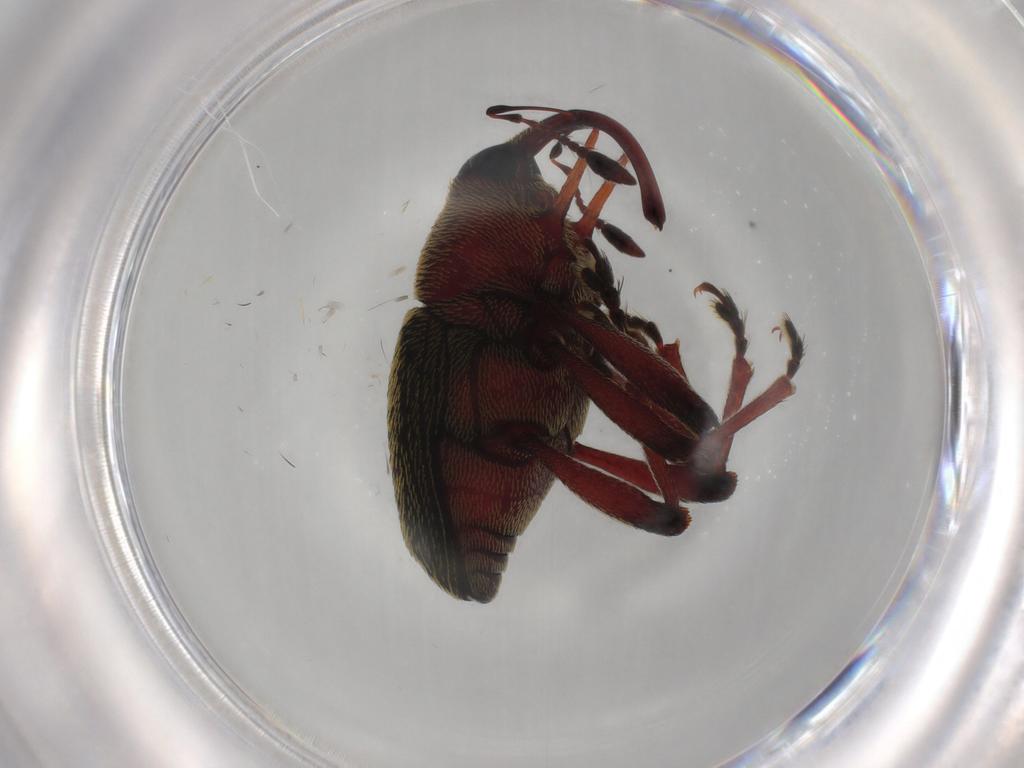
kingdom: Animalia
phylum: Arthropoda
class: Insecta
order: Coleoptera
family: Curculionidae
